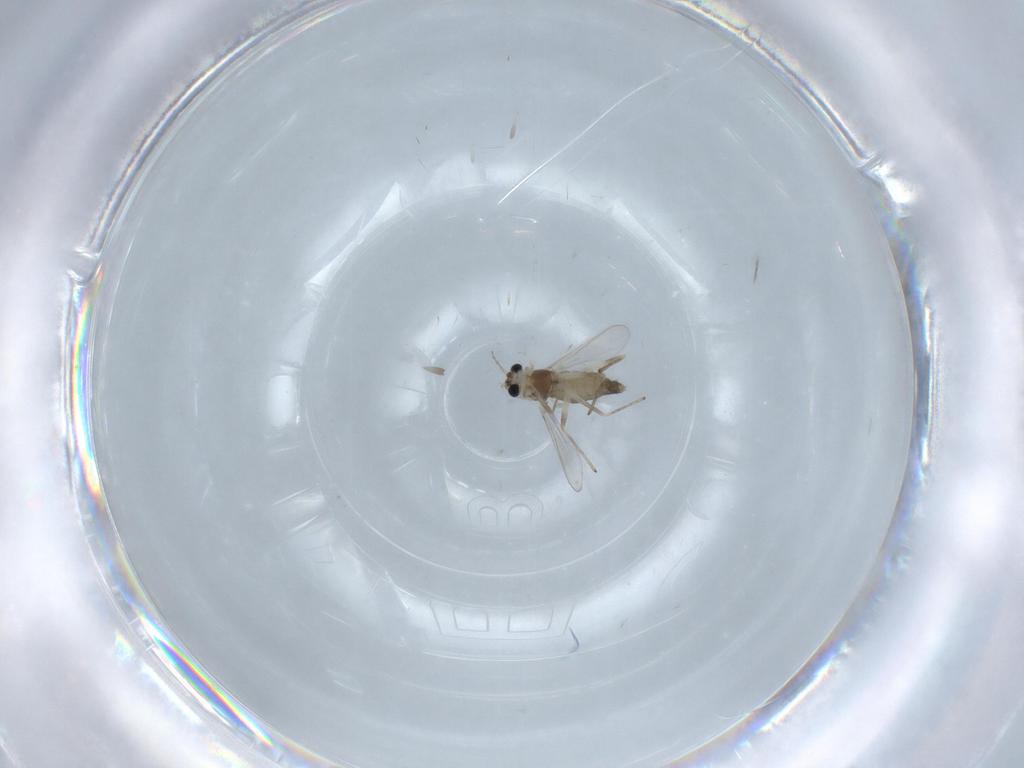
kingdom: Animalia
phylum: Arthropoda
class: Insecta
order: Diptera
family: Chironomidae
